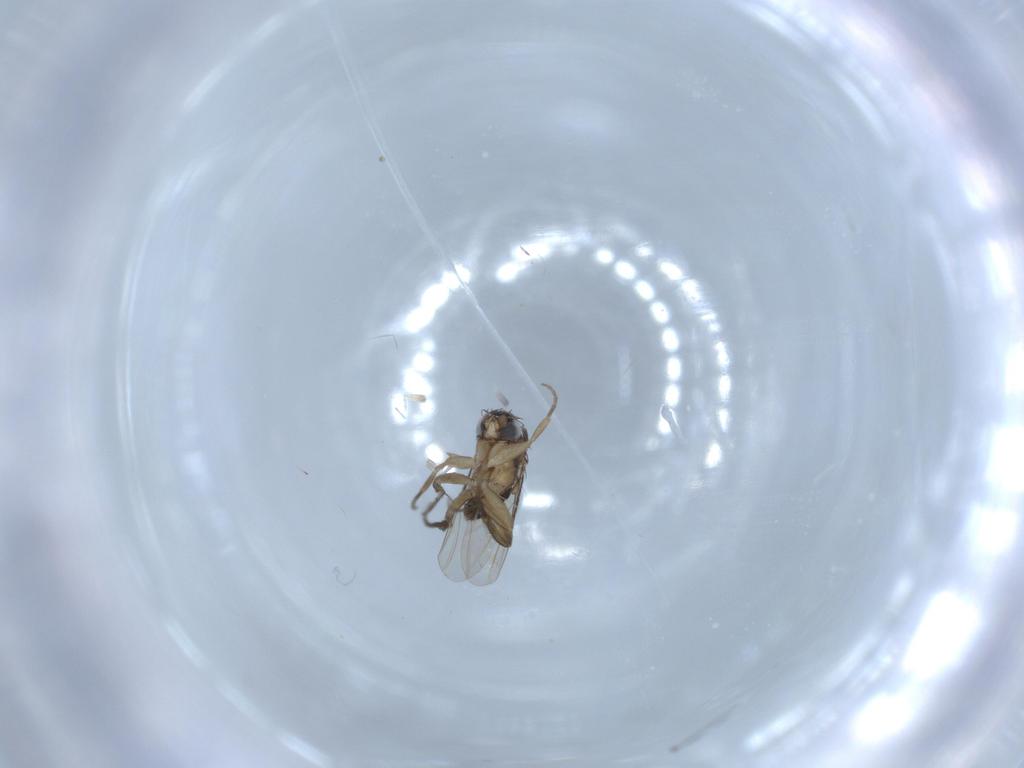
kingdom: Animalia
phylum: Arthropoda
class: Insecta
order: Diptera
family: Phoridae
